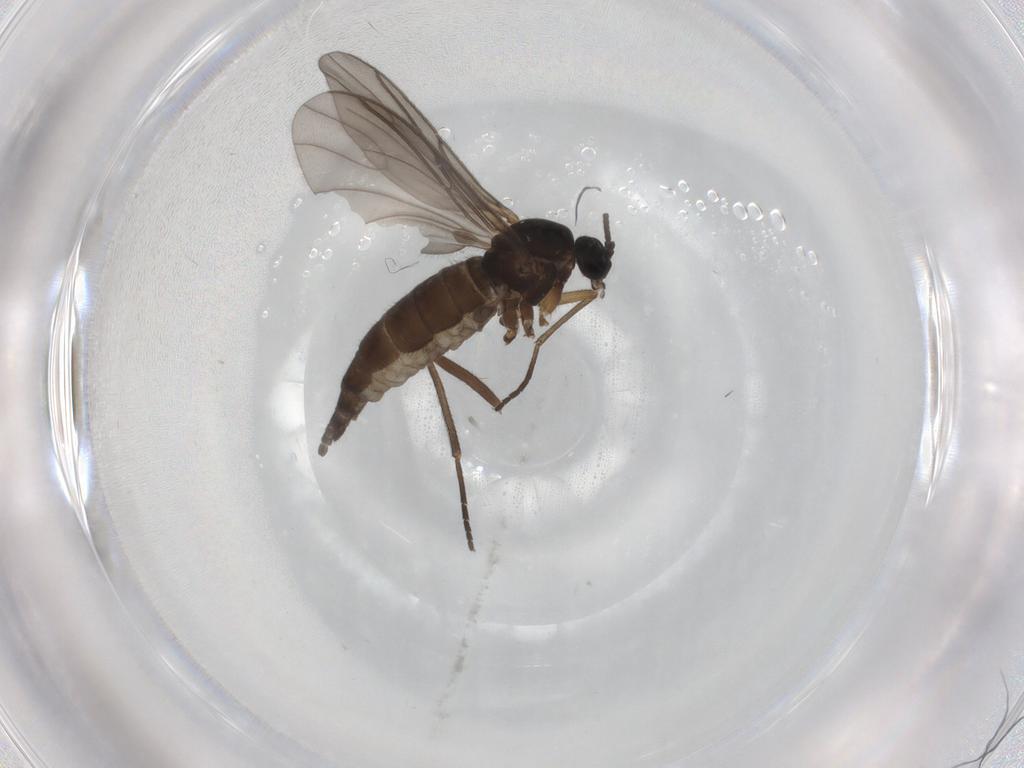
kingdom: Animalia
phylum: Arthropoda
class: Insecta
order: Diptera
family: Sciaridae
